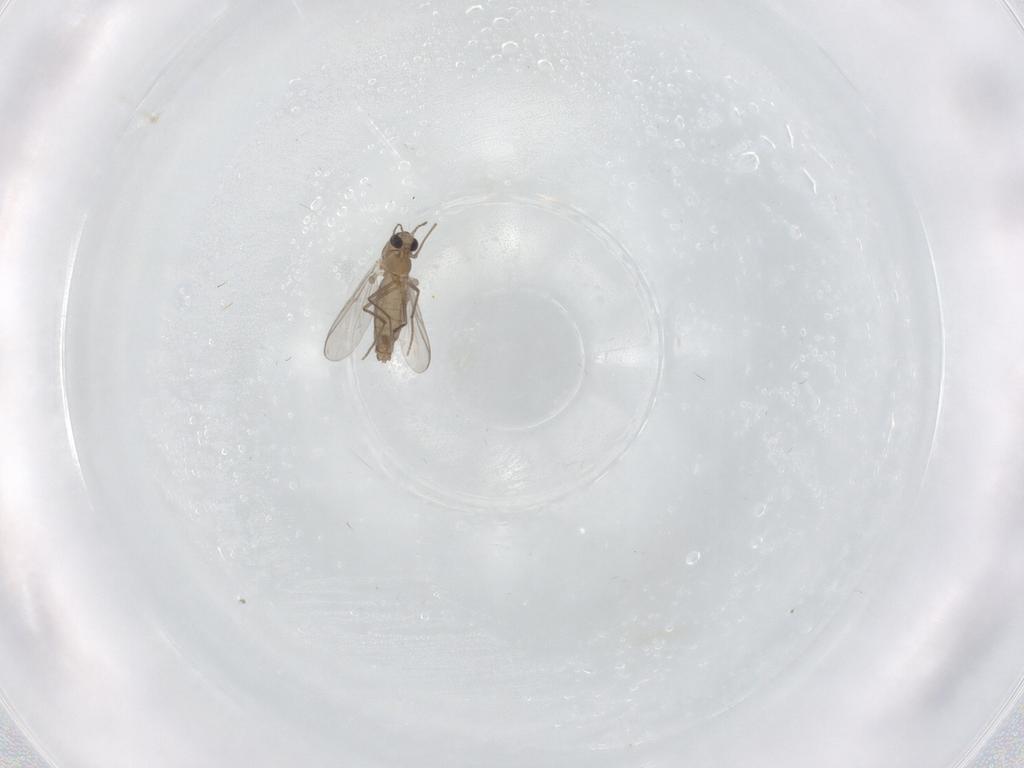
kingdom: Animalia
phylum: Arthropoda
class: Insecta
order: Diptera
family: Chironomidae
